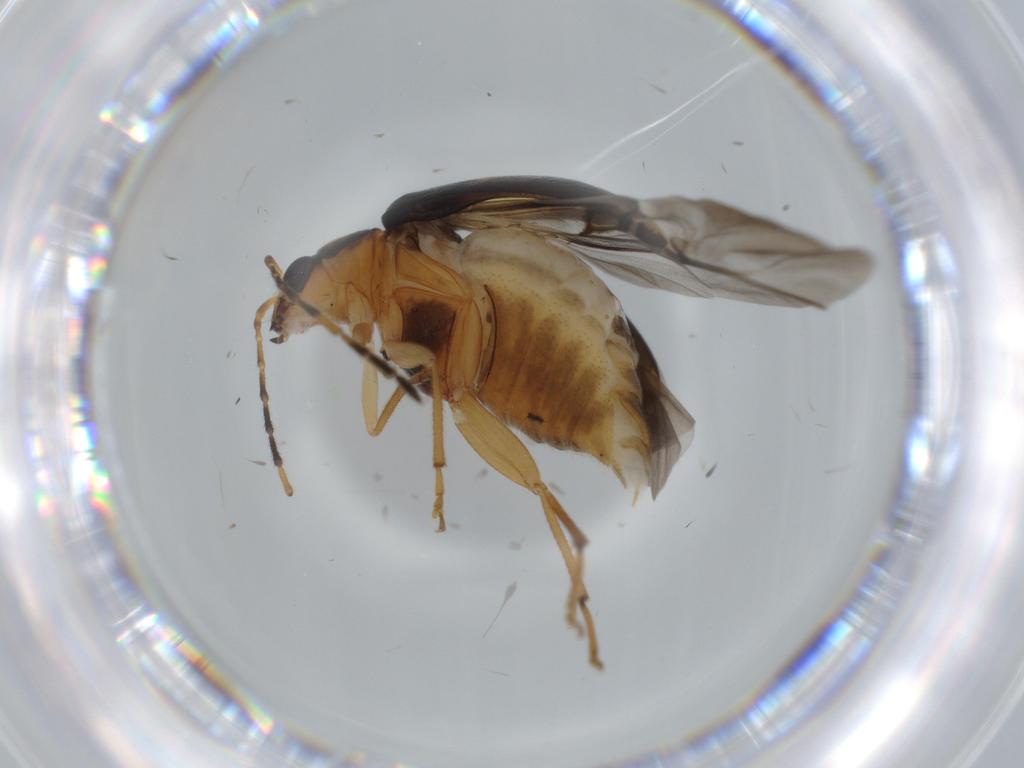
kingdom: Animalia
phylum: Arthropoda
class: Insecta
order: Coleoptera
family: Chrysomelidae
